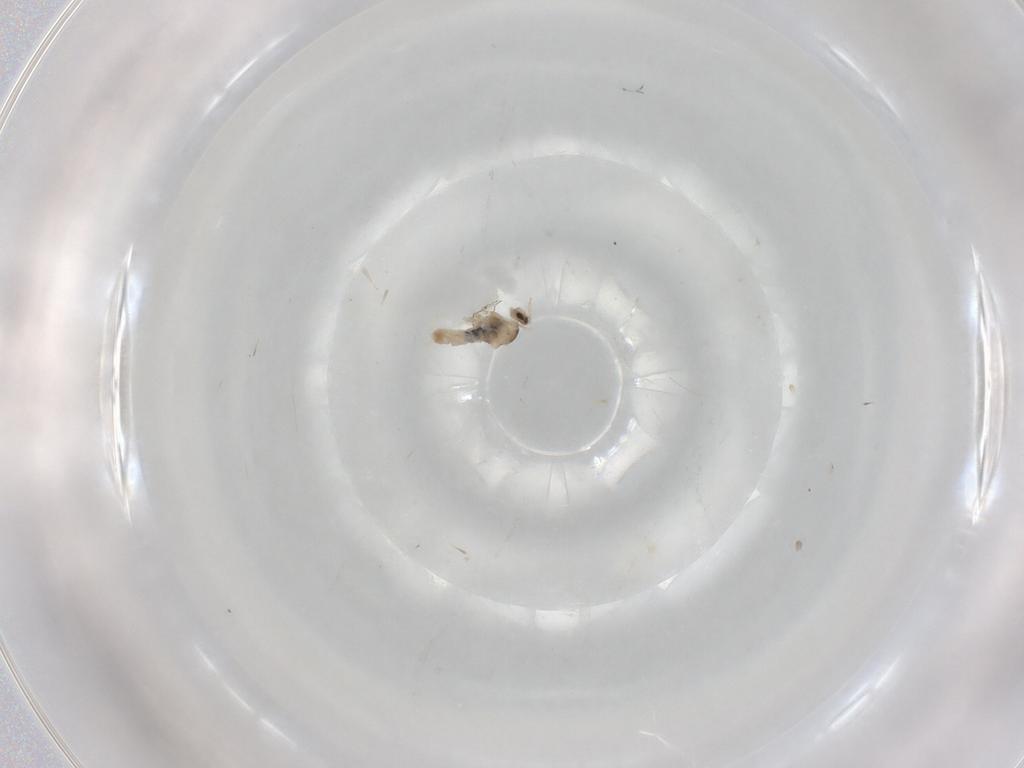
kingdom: Animalia
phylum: Arthropoda
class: Insecta
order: Diptera
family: Cecidomyiidae
